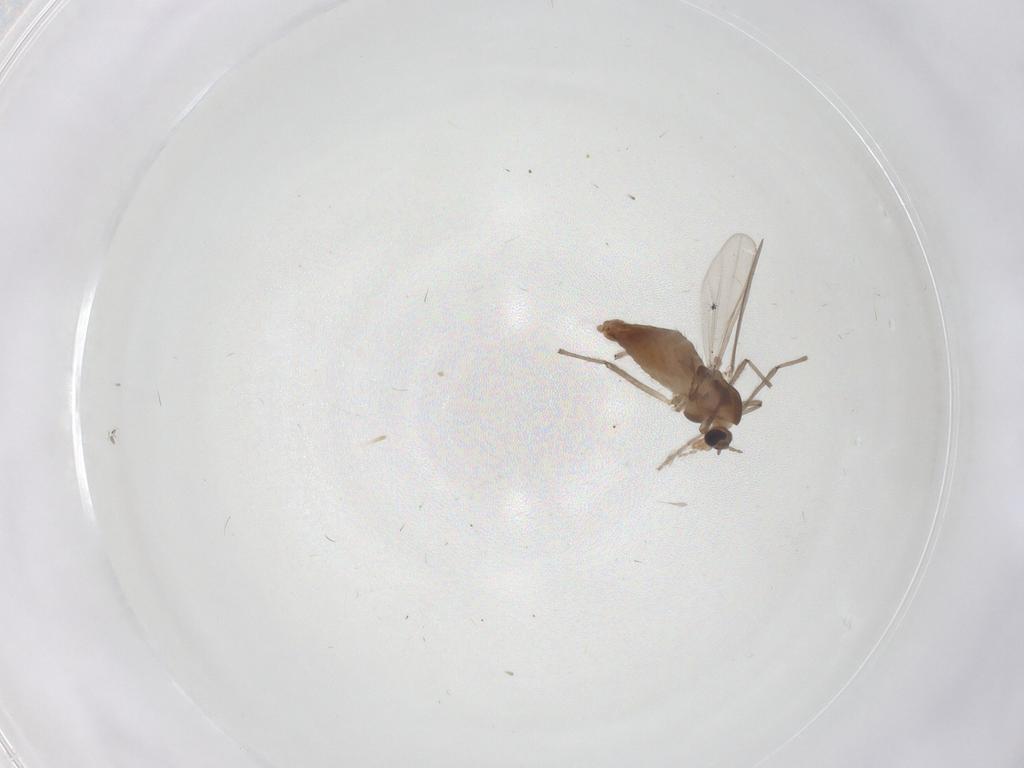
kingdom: Animalia
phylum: Arthropoda
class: Insecta
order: Diptera
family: Chironomidae
